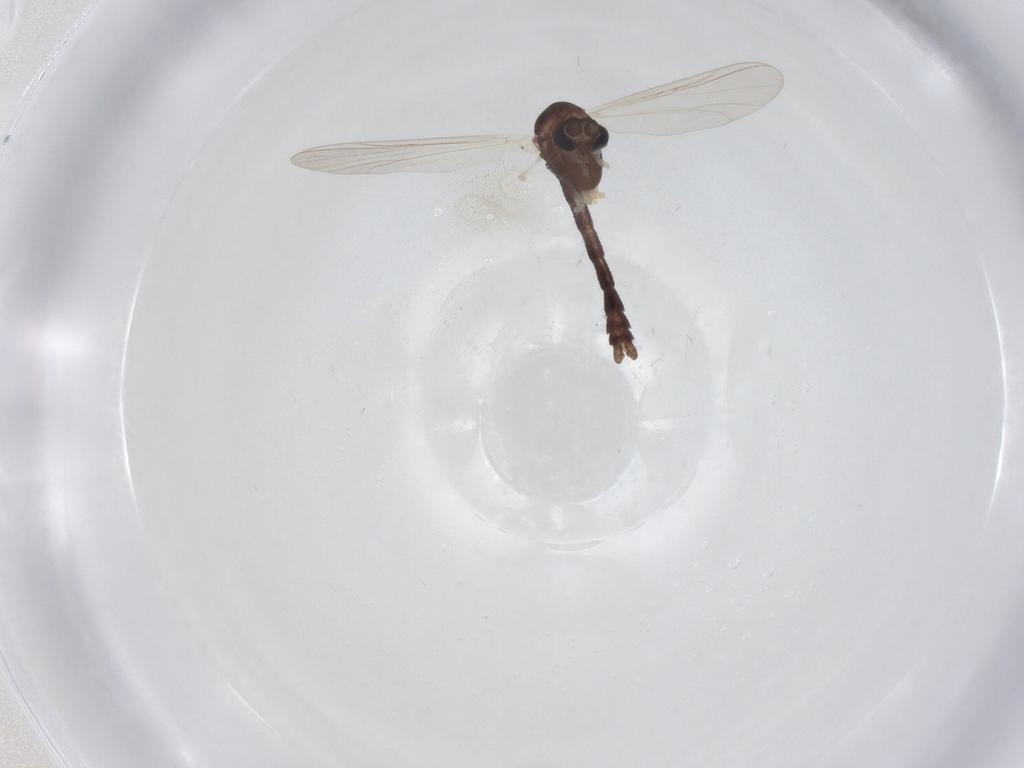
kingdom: Animalia
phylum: Arthropoda
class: Insecta
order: Diptera
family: Chironomidae
